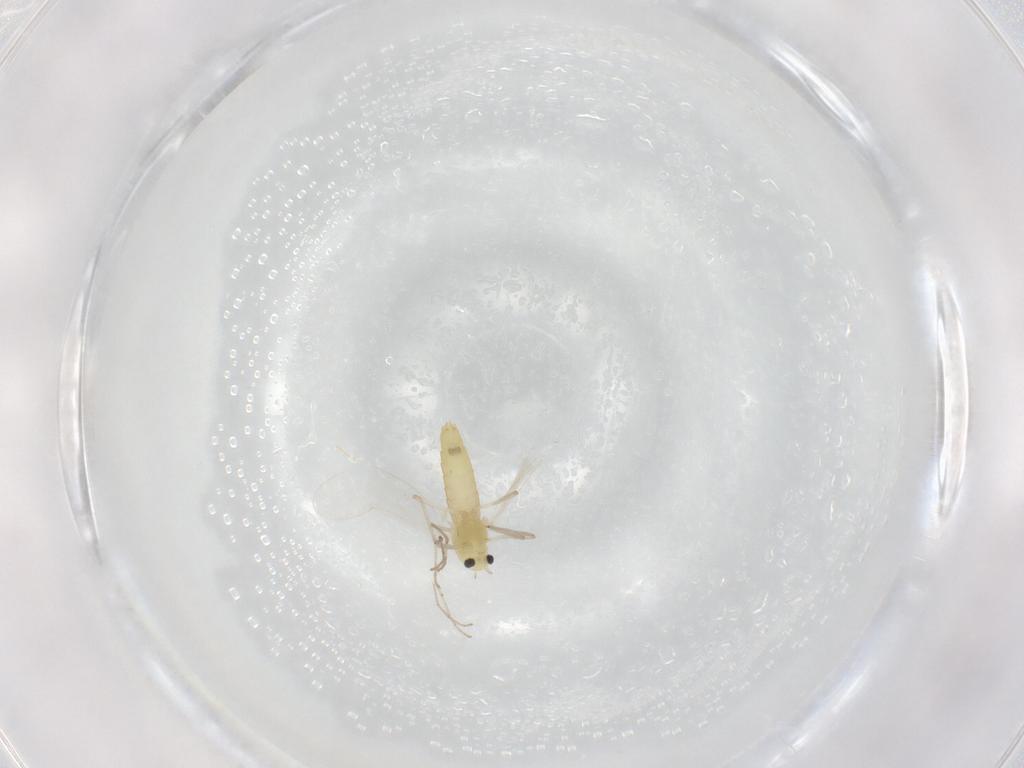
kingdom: Animalia
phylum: Arthropoda
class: Insecta
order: Diptera
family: Chironomidae
